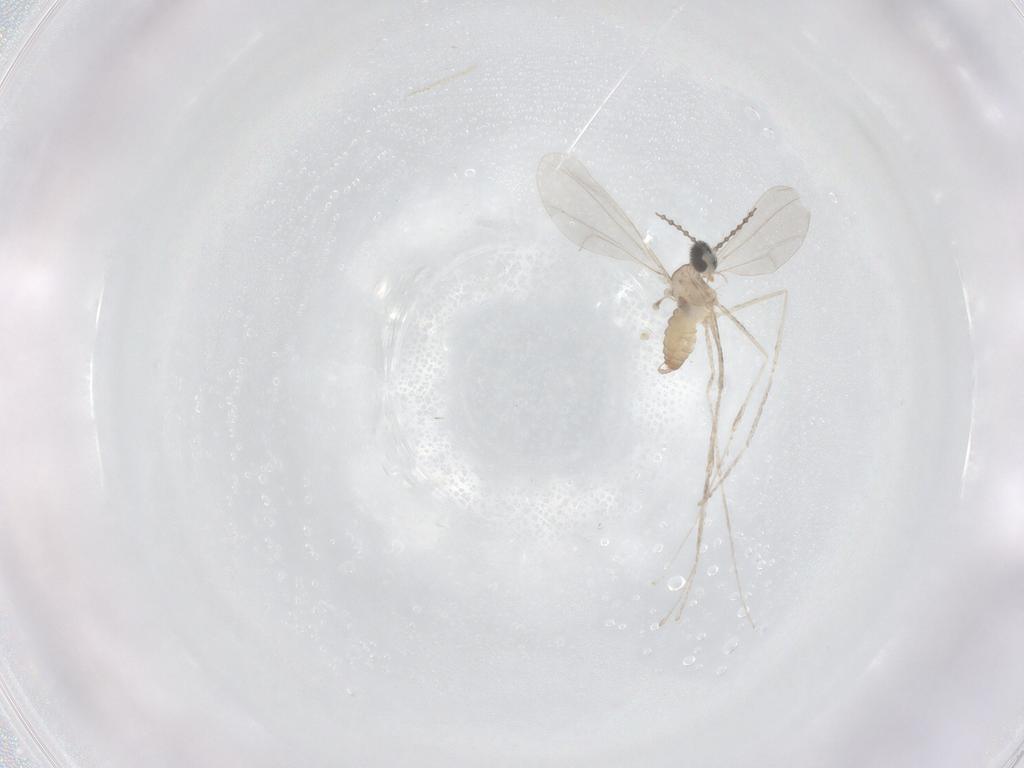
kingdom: Animalia
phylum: Arthropoda
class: Insecta
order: Diptera
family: Cecidomyiidae
